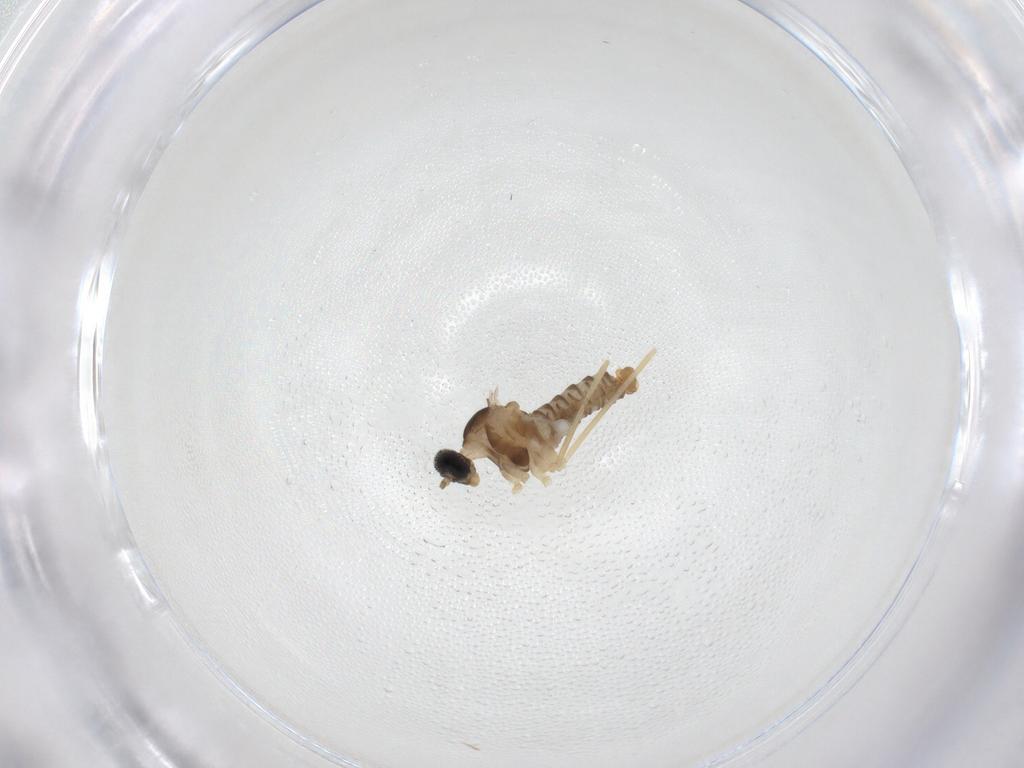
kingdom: Animalia
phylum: Arthropoda
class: Insecta
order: Diptera
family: Cecidomyiidae
